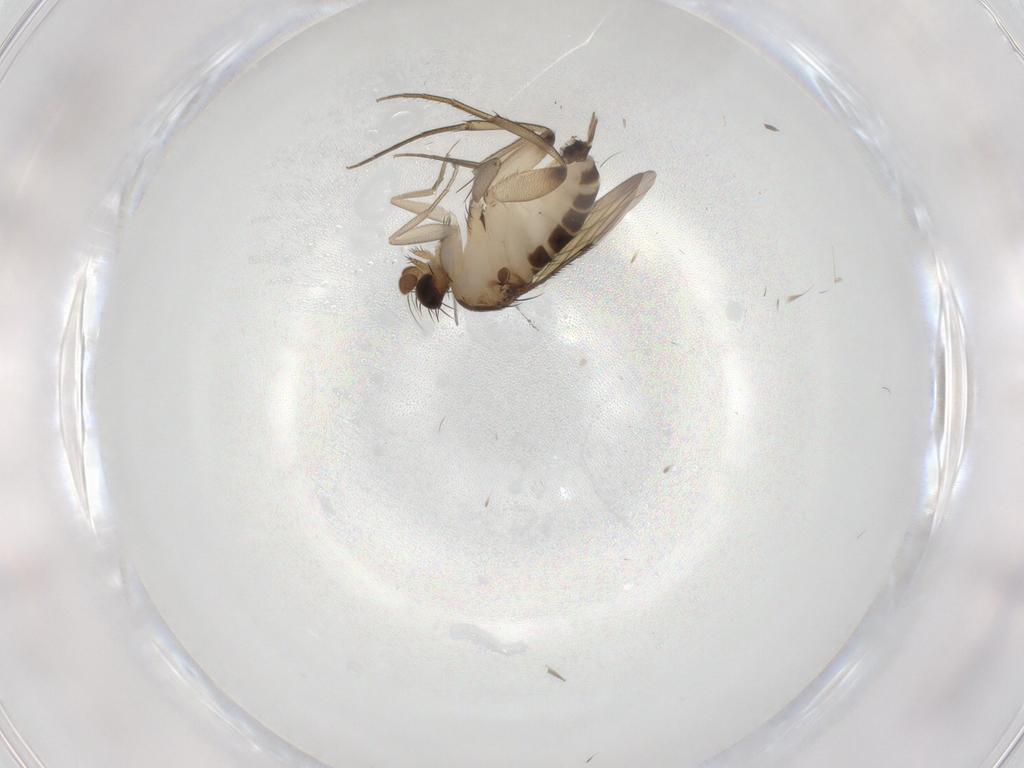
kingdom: Animalia
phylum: Arthropoda
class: Insecta
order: Diptera
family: Phoridae
